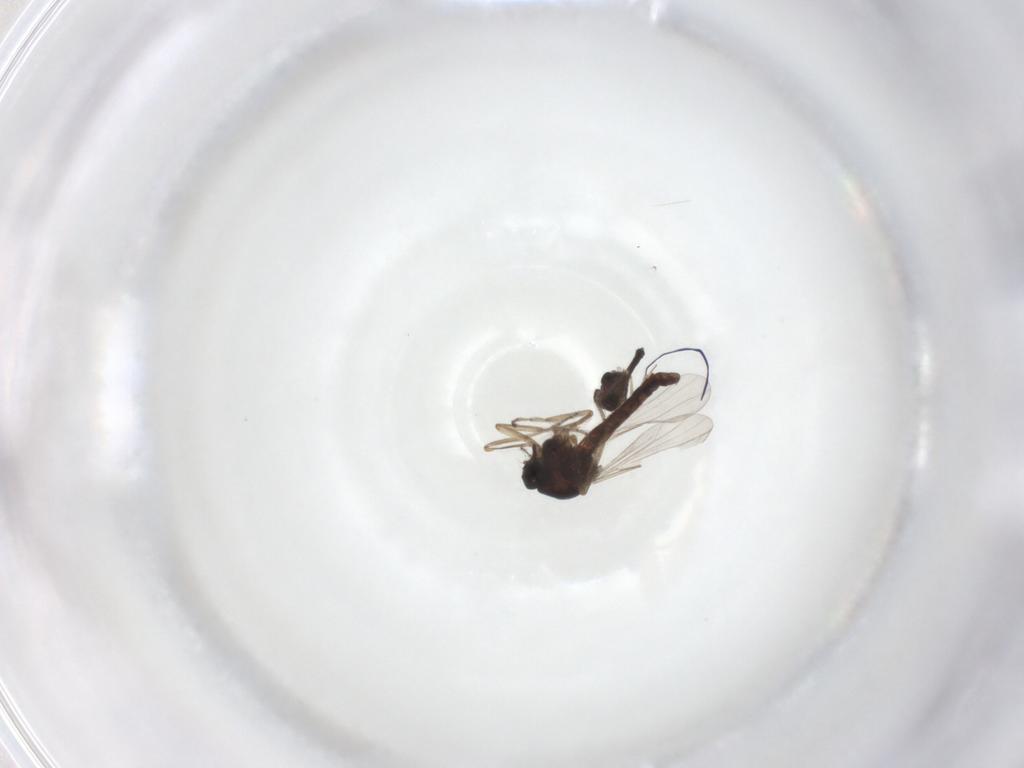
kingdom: Animalia
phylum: Arthropoda
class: Insecta
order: Diptera
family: Ceratopogonidae
